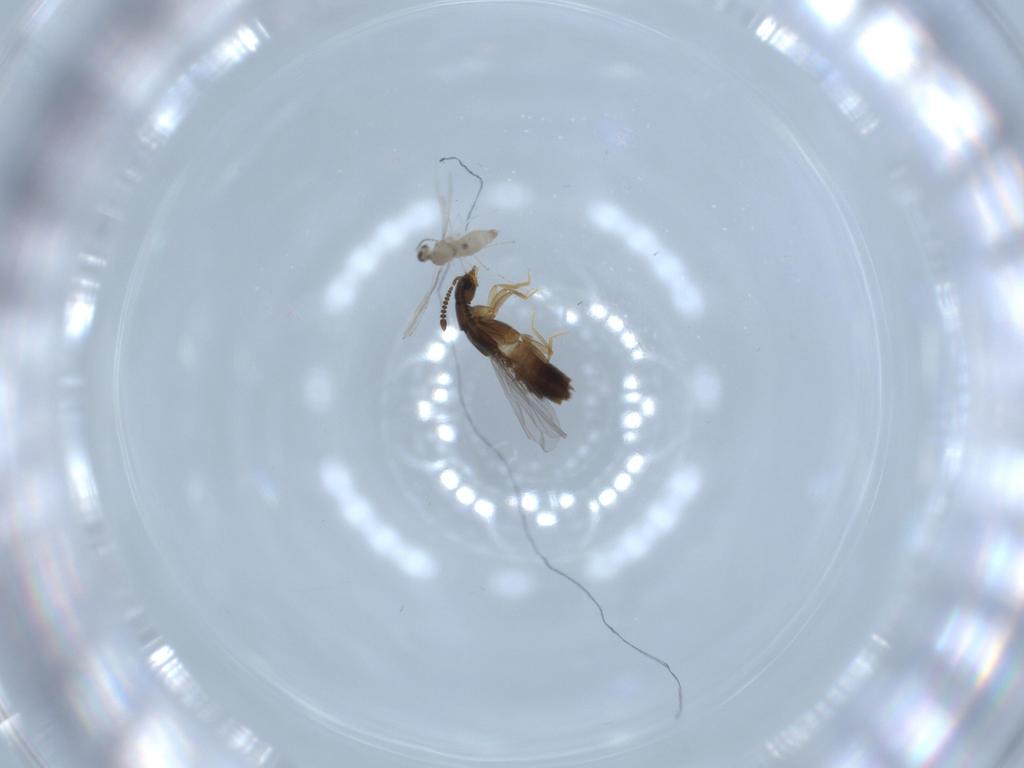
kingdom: Animalia
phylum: Arthropoda
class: Insecta
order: Coleoptera
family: Staphylinidae
